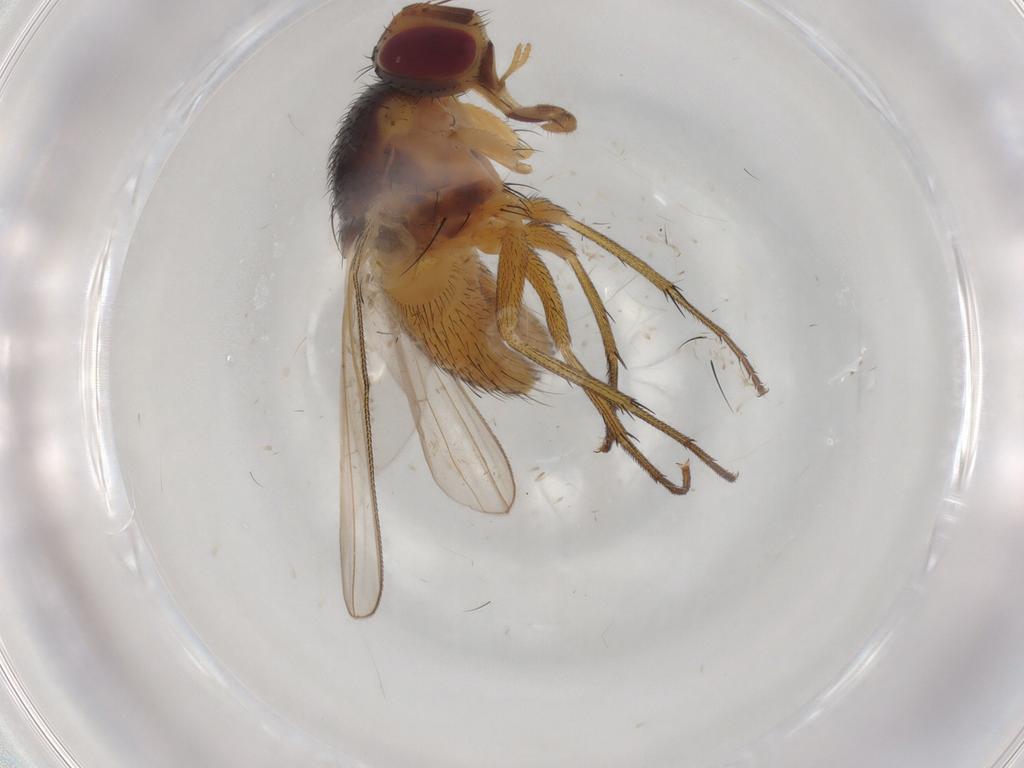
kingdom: Animalia
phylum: Arthropoda
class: Insecta
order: Diptera
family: Muscidae
